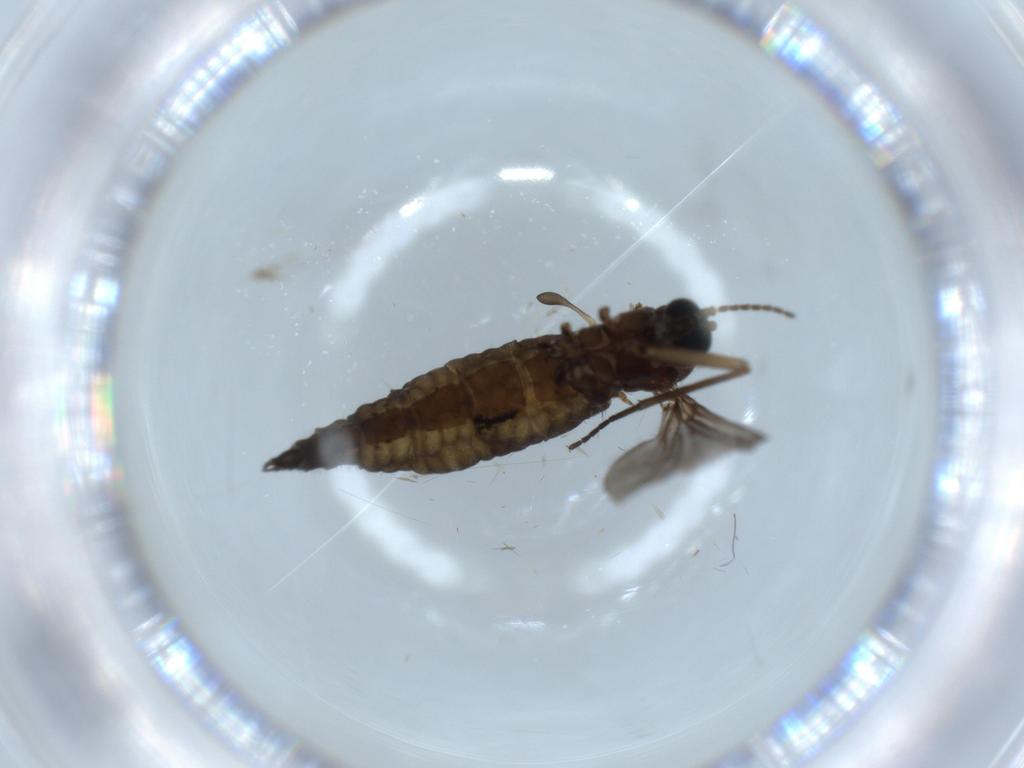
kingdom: Animalia
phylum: Arthropoda
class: Insecta
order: Diptera
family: Sciaridae
